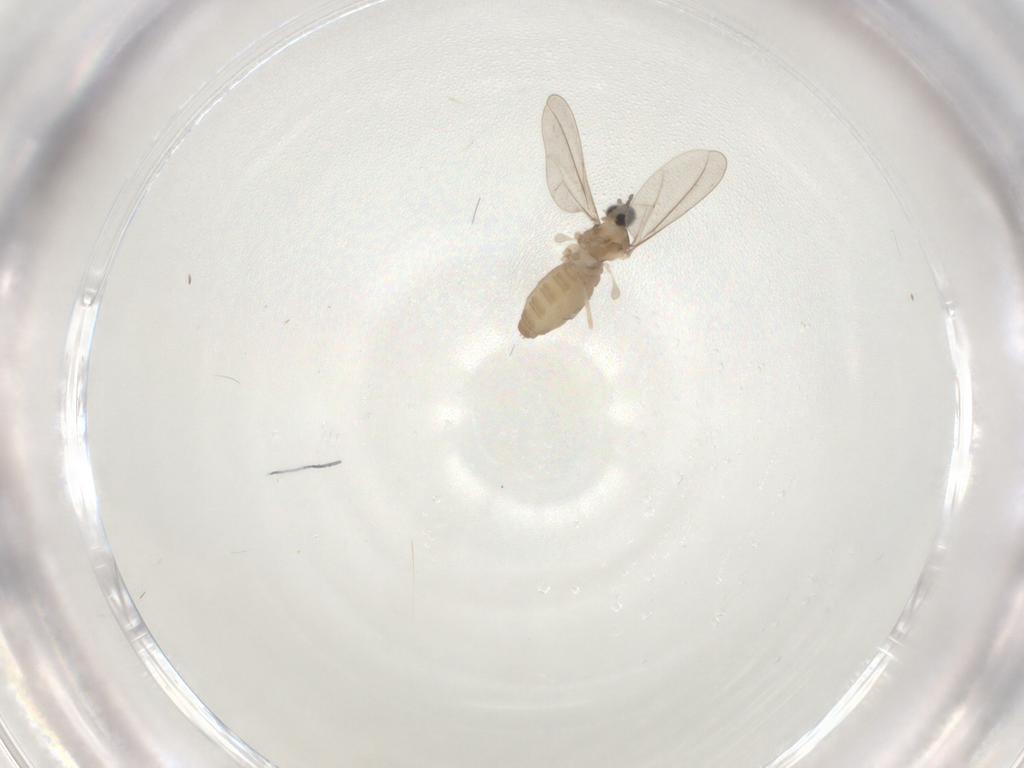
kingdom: Animalia
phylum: Arthropoda
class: Insecta
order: Diptera
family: Cecidomyiidae
